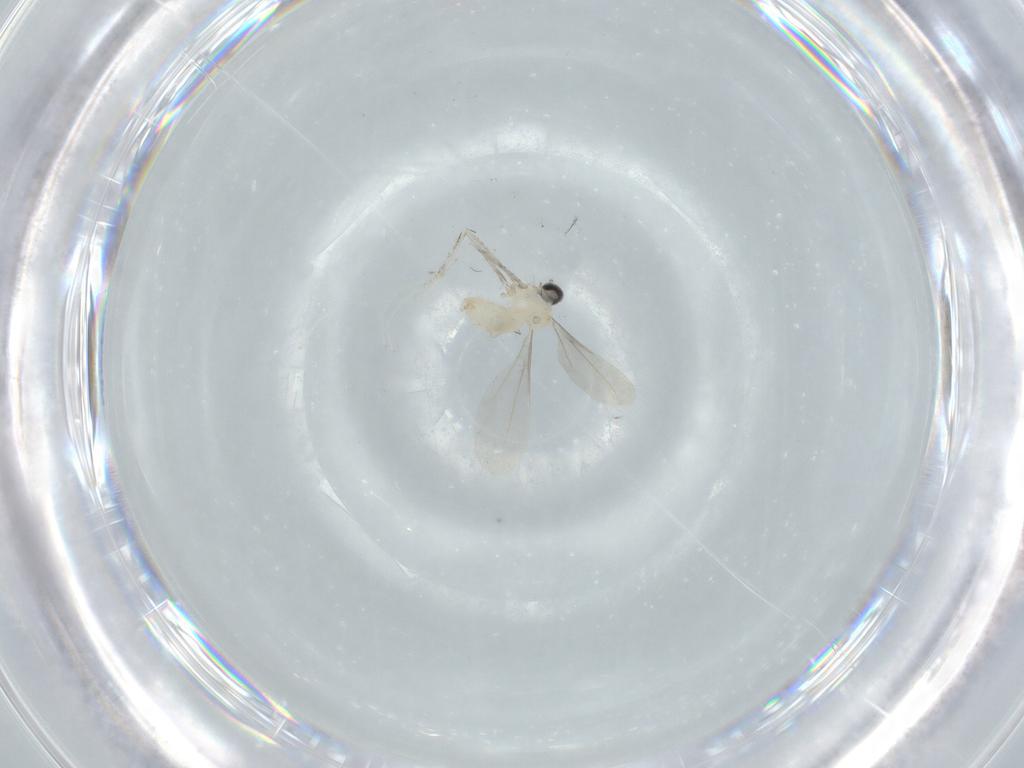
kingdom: Animalia
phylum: Arthropoda
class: Insecta
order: Diptera
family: Cecidomyiidae
